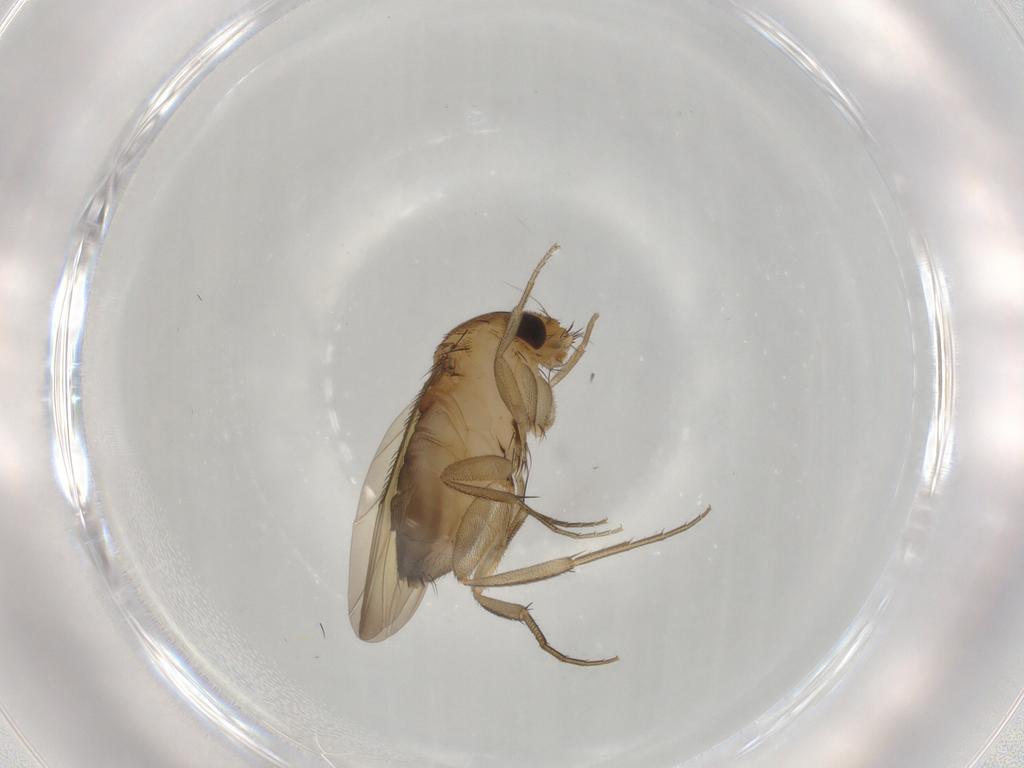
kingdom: Animalia
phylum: Arthropoda
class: Insecta
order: Diptera
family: Phoridae
